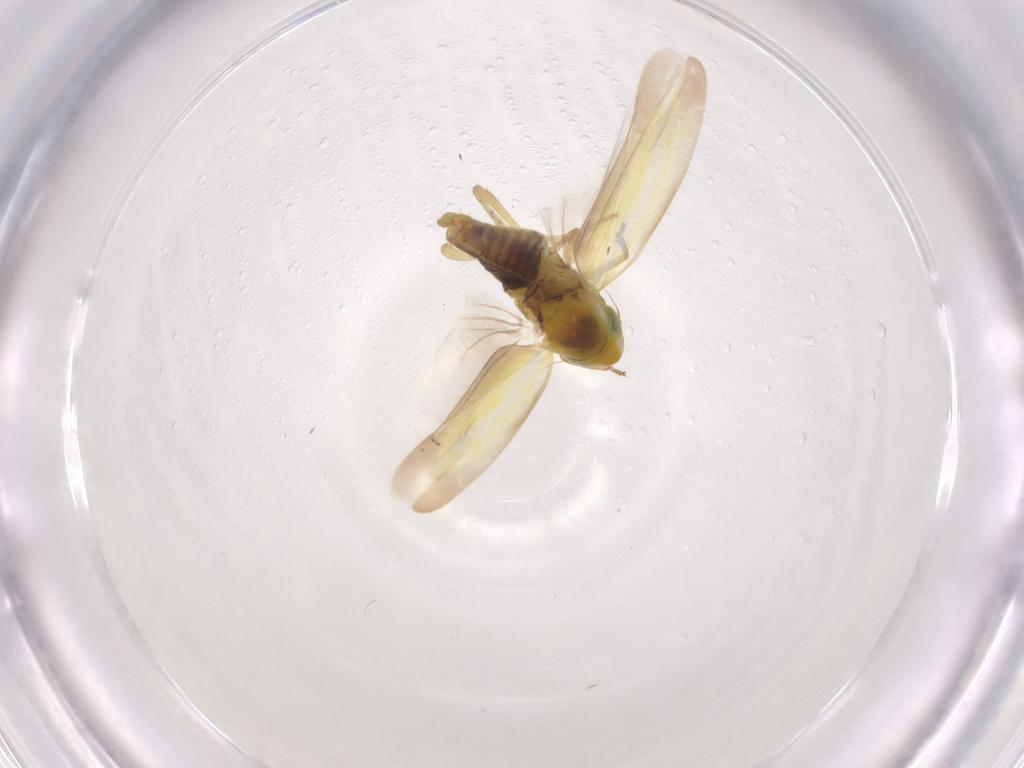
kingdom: Animalia
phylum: Arthropoda
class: Insecta
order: Hemiptera
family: Cicadellidae
